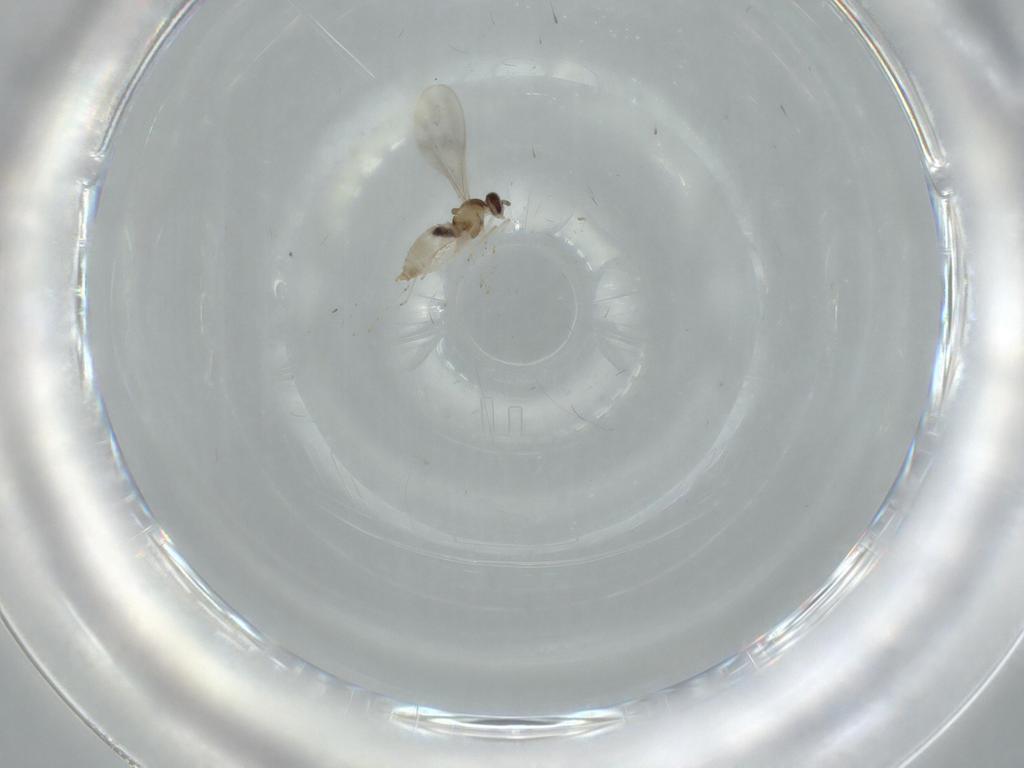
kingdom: Animalia
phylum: Arthropoda
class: Insecta
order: Diptera
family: Cecidomyiidae
